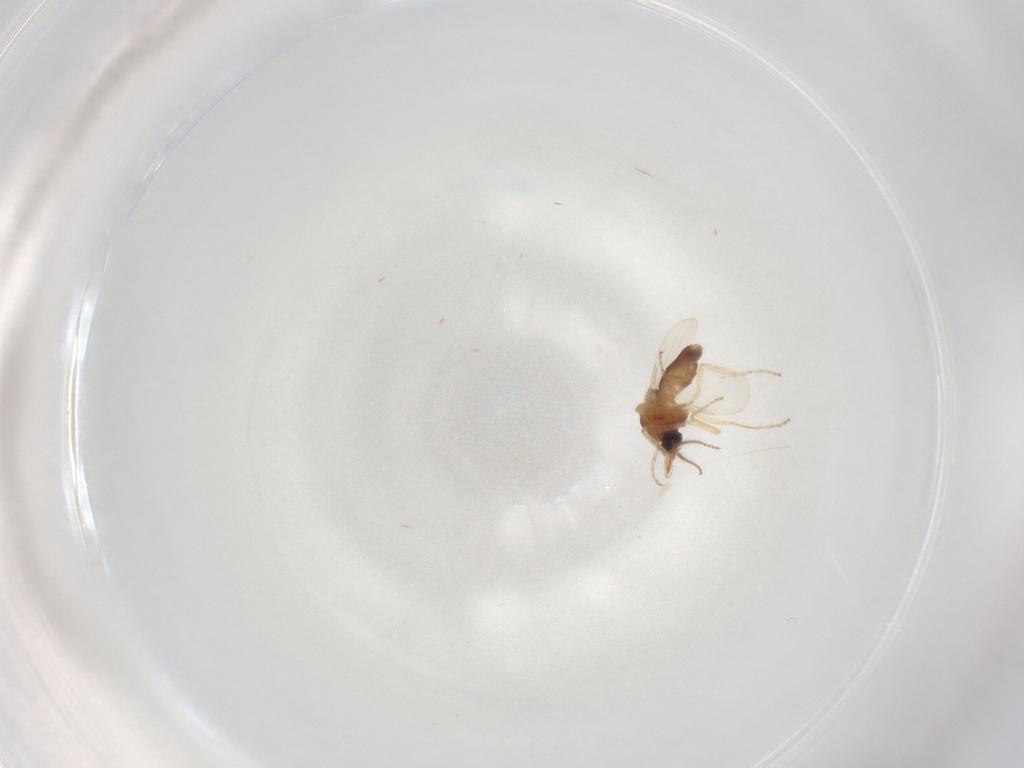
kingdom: Animalia
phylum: Arthropoda
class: Insecta
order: Diptera
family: Ceratopogonidae
